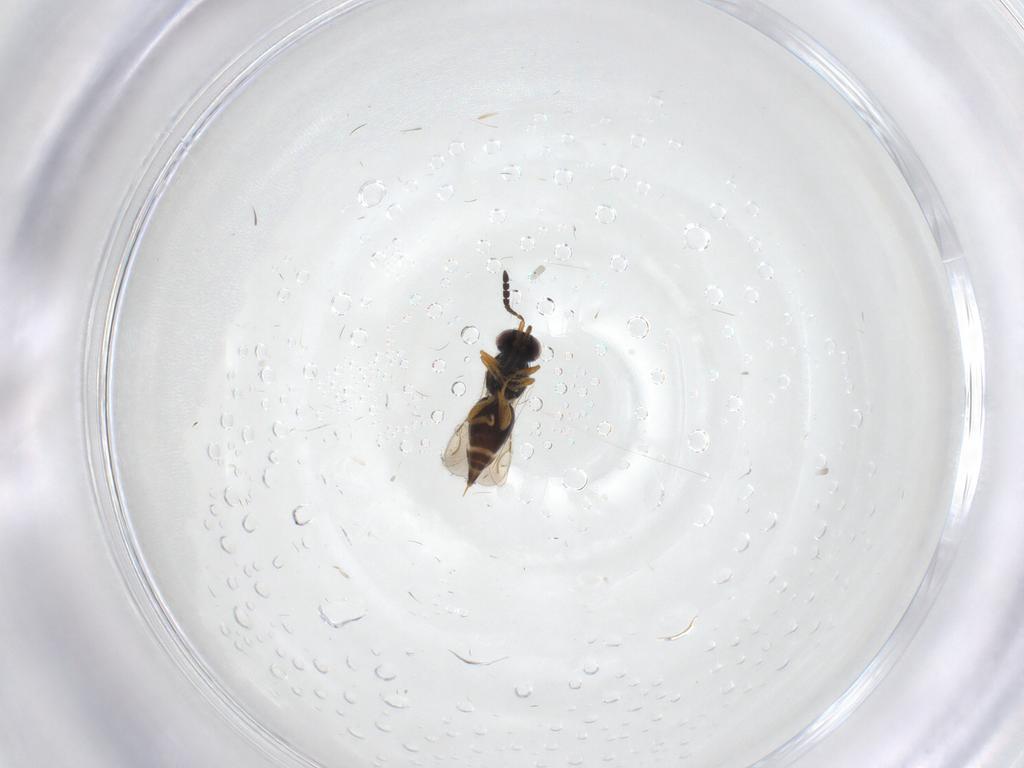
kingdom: Animalia
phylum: Arthropoda
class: Insecta
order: Hymenoptera
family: Ceraphronidae
